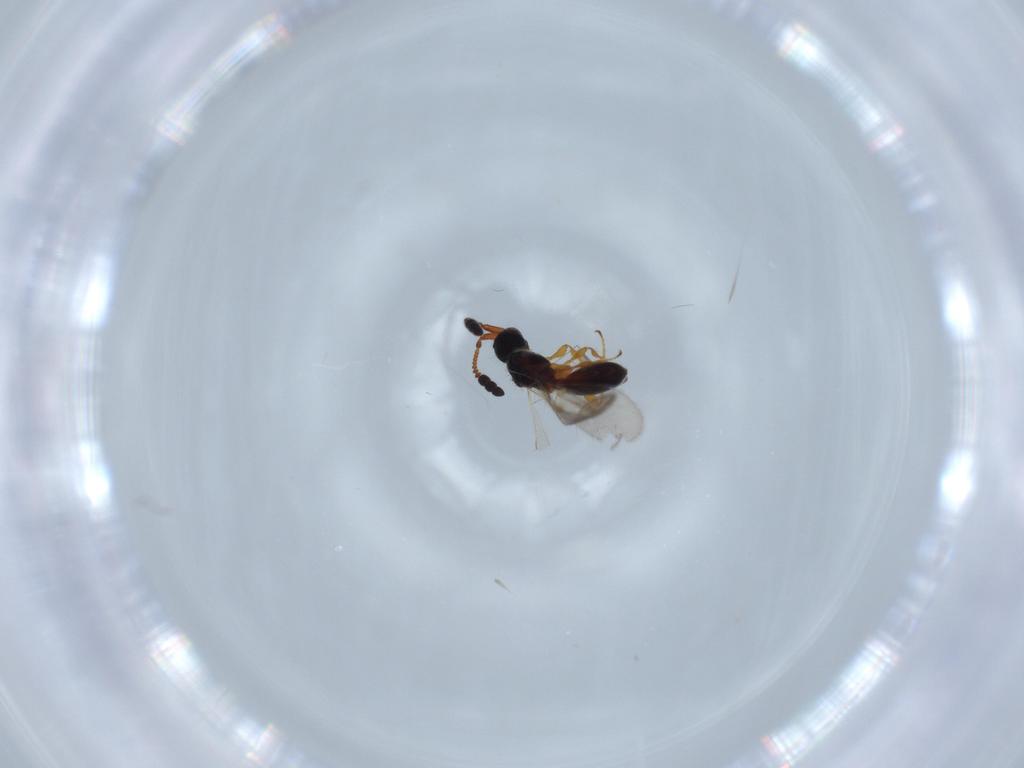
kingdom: Animalia
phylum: Arthropoda
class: Insecta
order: Hymenoptera
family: Diapriidae
